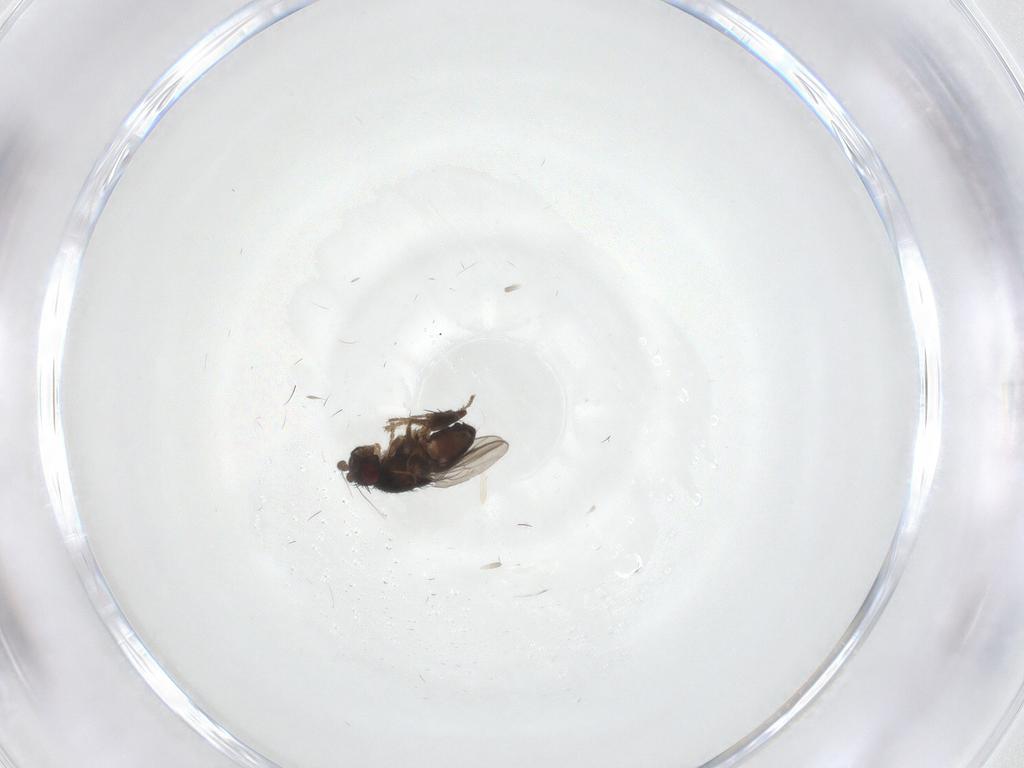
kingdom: Animalia
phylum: Arthropoda
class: Insecta
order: Diptera
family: Sphaeroceridae
